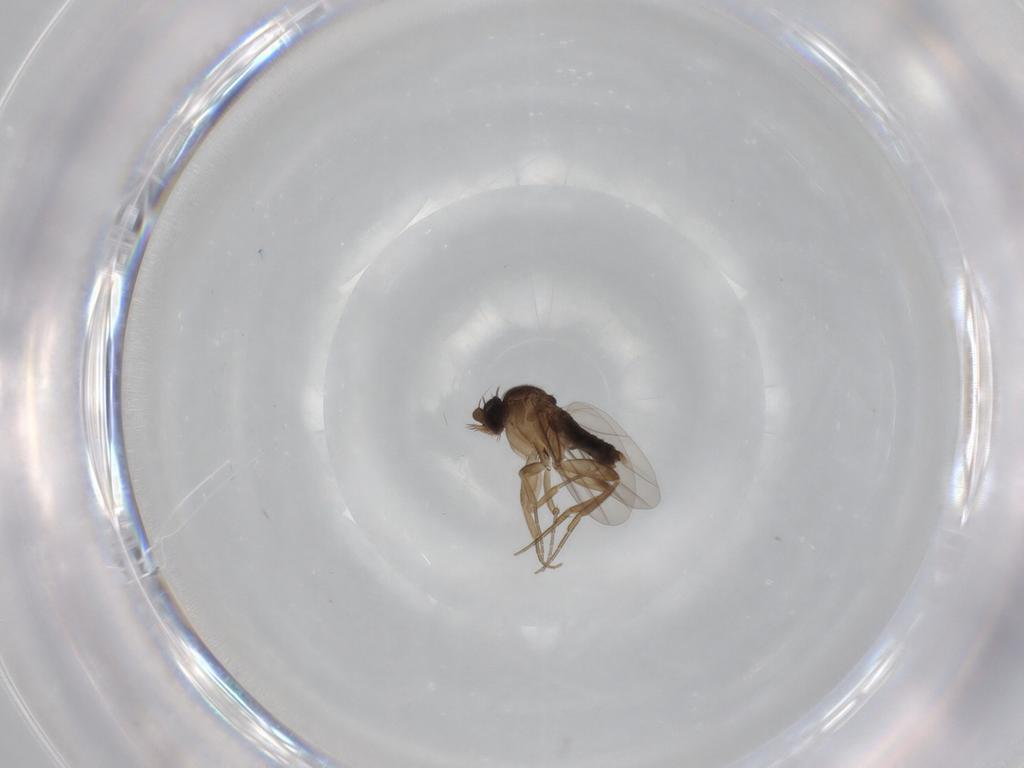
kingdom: Animalia
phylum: Arthropoda
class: Insecta
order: Diptera
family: Phoridae
